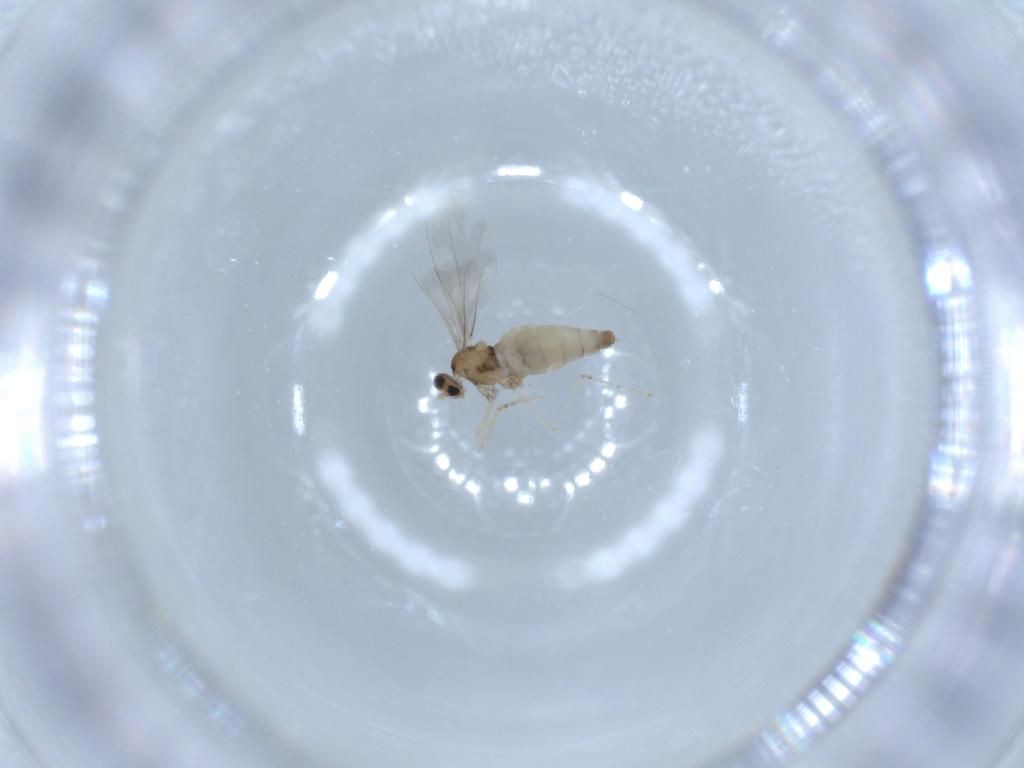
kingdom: Animalia
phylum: Arthropoda
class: Insecta
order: Diptera
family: Cecidomyiidae
